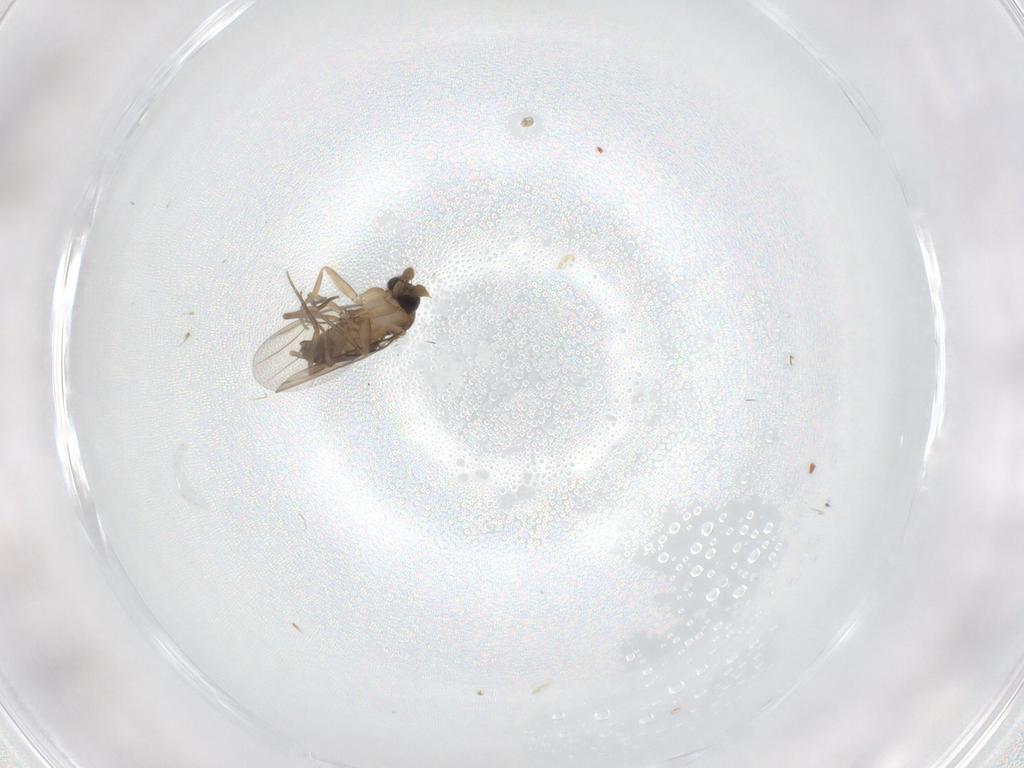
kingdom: Animalia
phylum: Arthropoda
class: Insecta
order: Diptera
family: Phoridae
